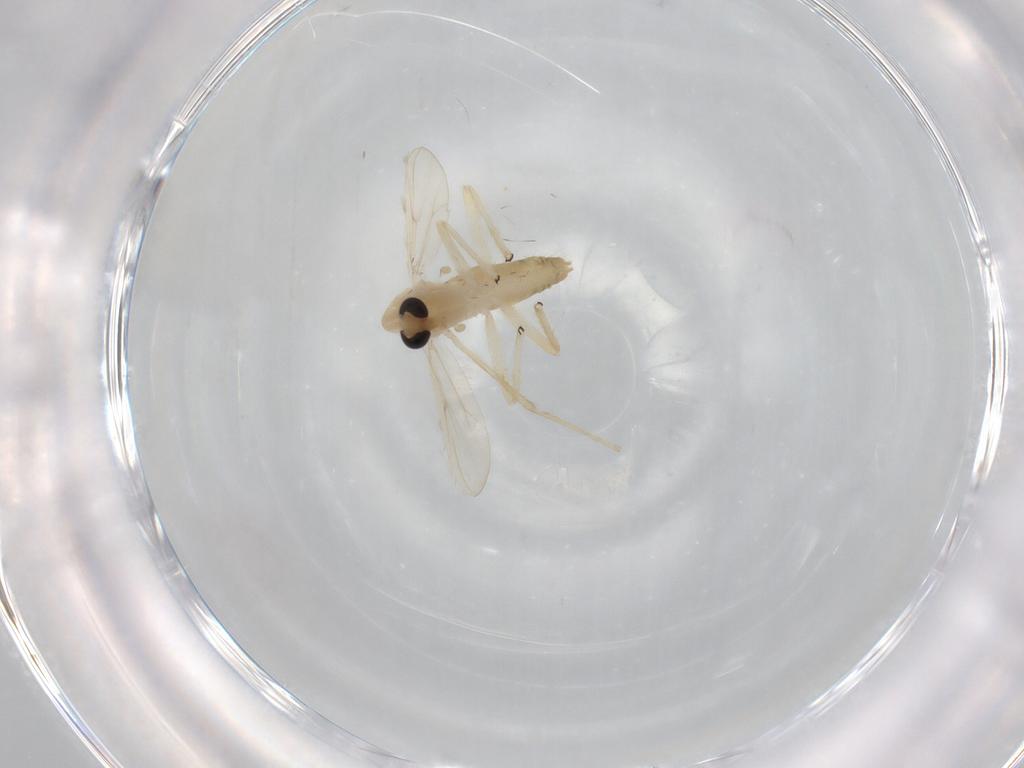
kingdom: Animalia
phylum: Arthropoda
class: Insecta
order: Diptera
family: Chironomidae
